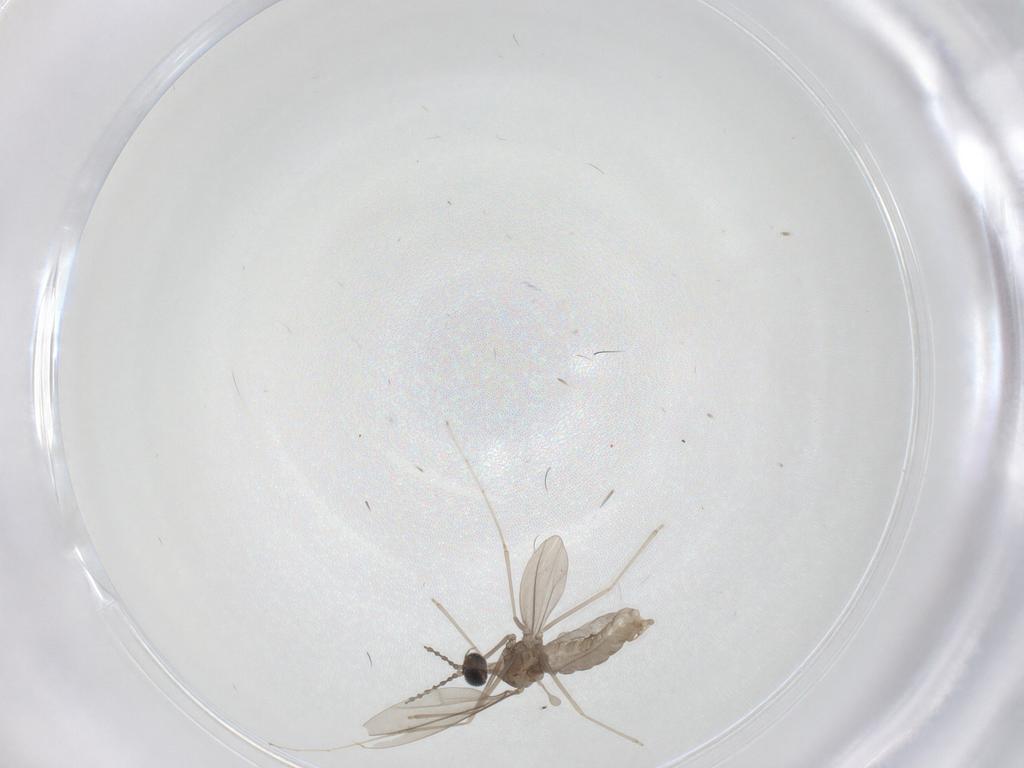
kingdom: Animalia
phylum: Arthropoda
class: Insecta
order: Diptera
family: Cecidomyiidae
